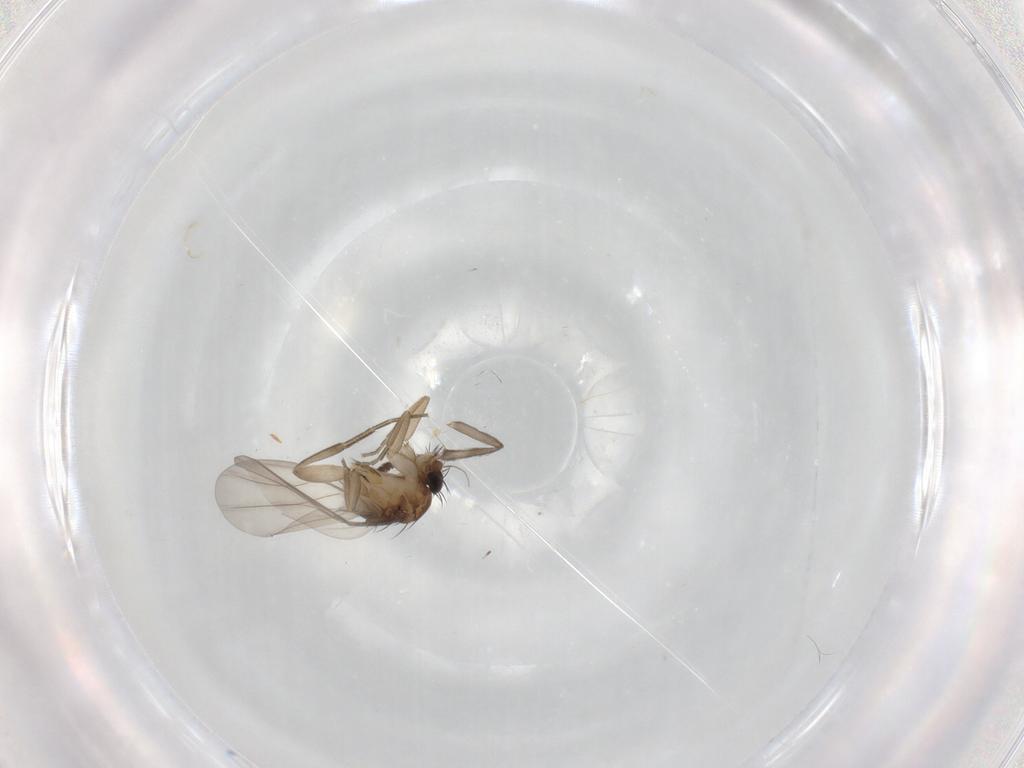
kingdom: Animalia
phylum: Arthropoda
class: Insecta
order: Diptera
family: Phoridae
